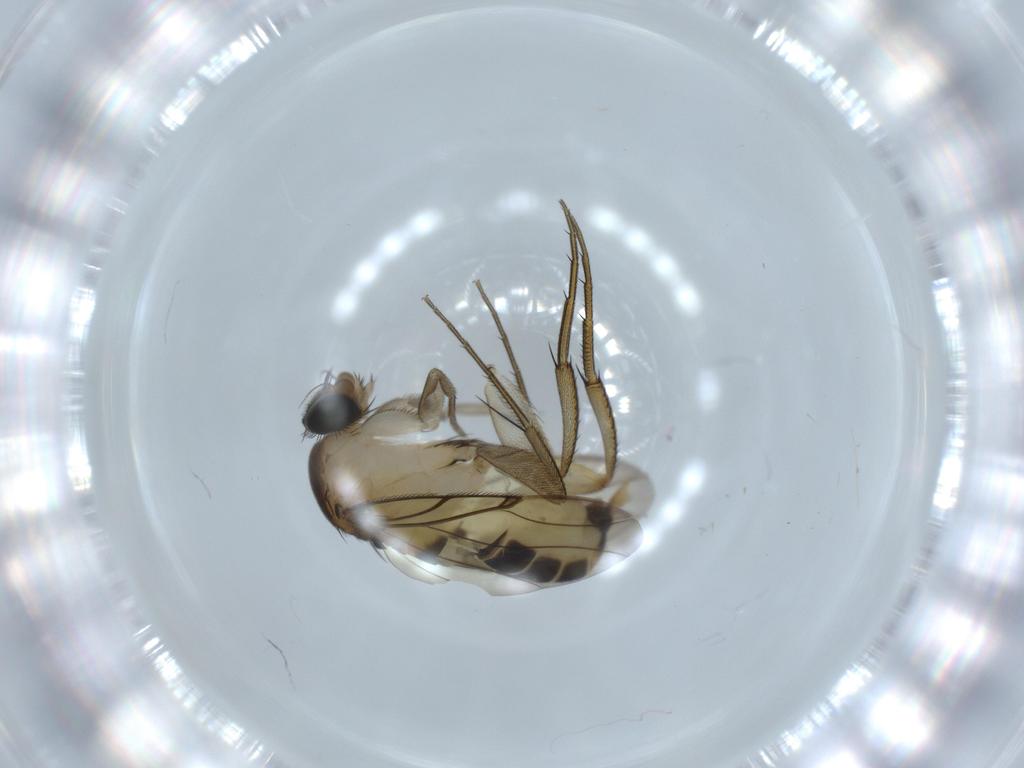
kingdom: Animalia
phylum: Arthropoda
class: Insecta
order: Diptera
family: Phoridae
